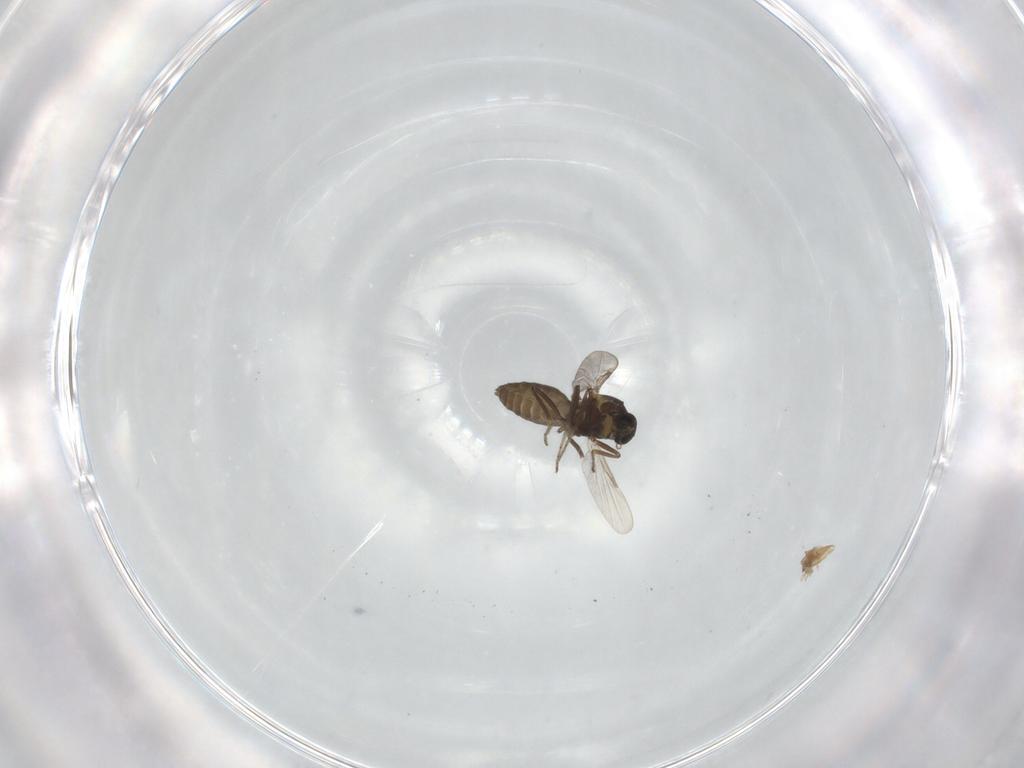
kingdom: Animalia
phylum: Arthropoda
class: Insecta
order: Diptera
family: Ceratopogonidae
